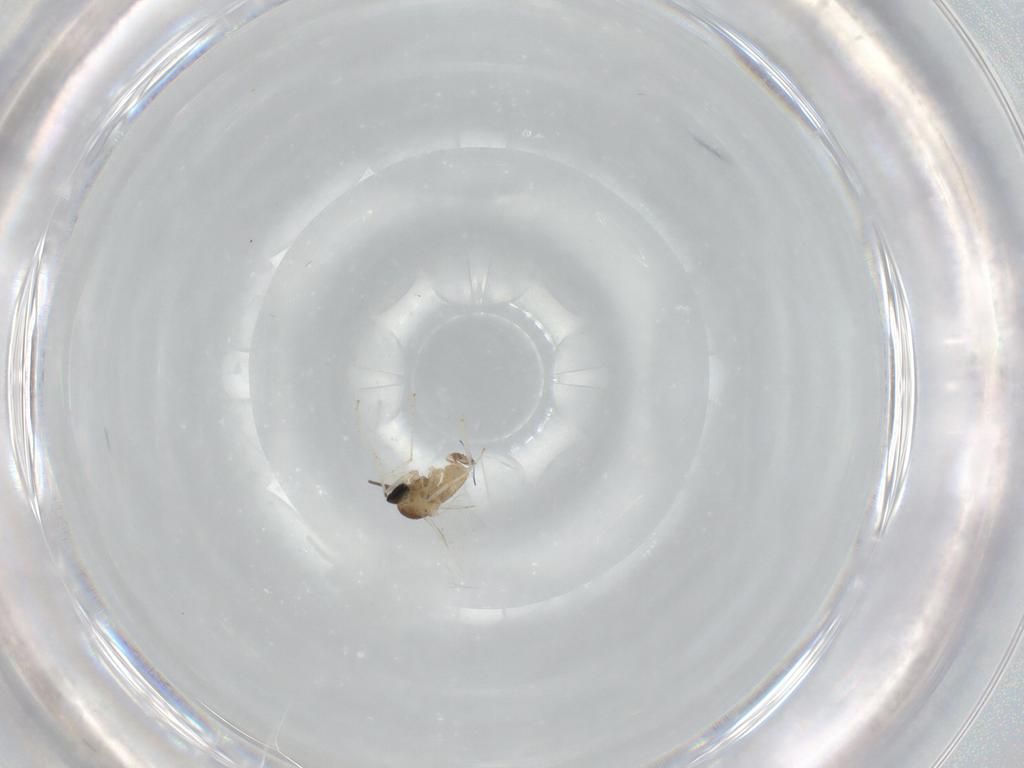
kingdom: Animalia
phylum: Arthropoda
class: Insecta
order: Diptera
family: Cecidomyiidae
